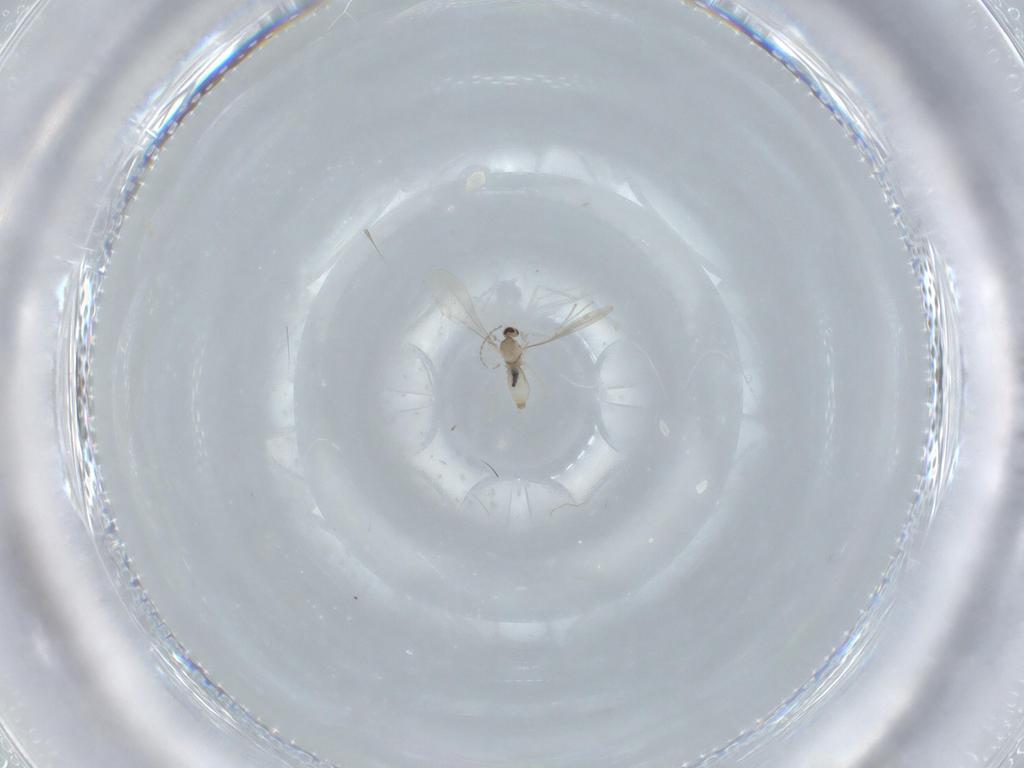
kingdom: Animalia
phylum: Arthropoda
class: Insecta
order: Diptera
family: Cecidomyiidae
